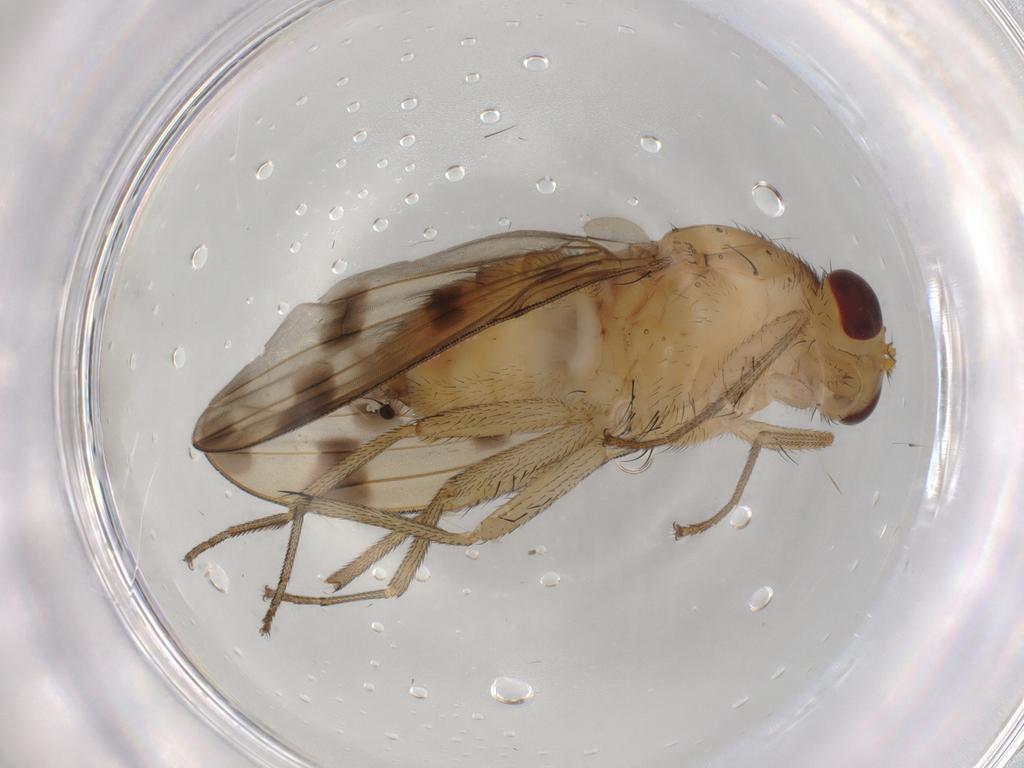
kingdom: Animalia
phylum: Arthropoda
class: Insecta
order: Diptera
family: Lauxaniidae
